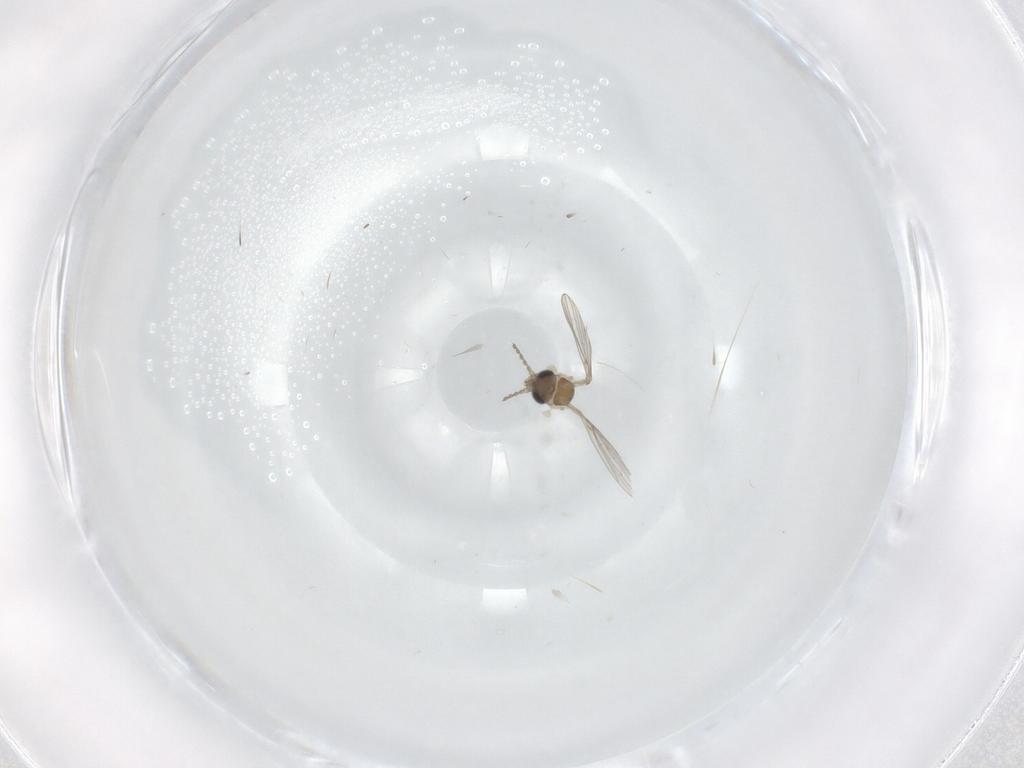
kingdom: Animalia
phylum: Arthropoda
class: Insecta
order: Diptera
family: Psychodidae
